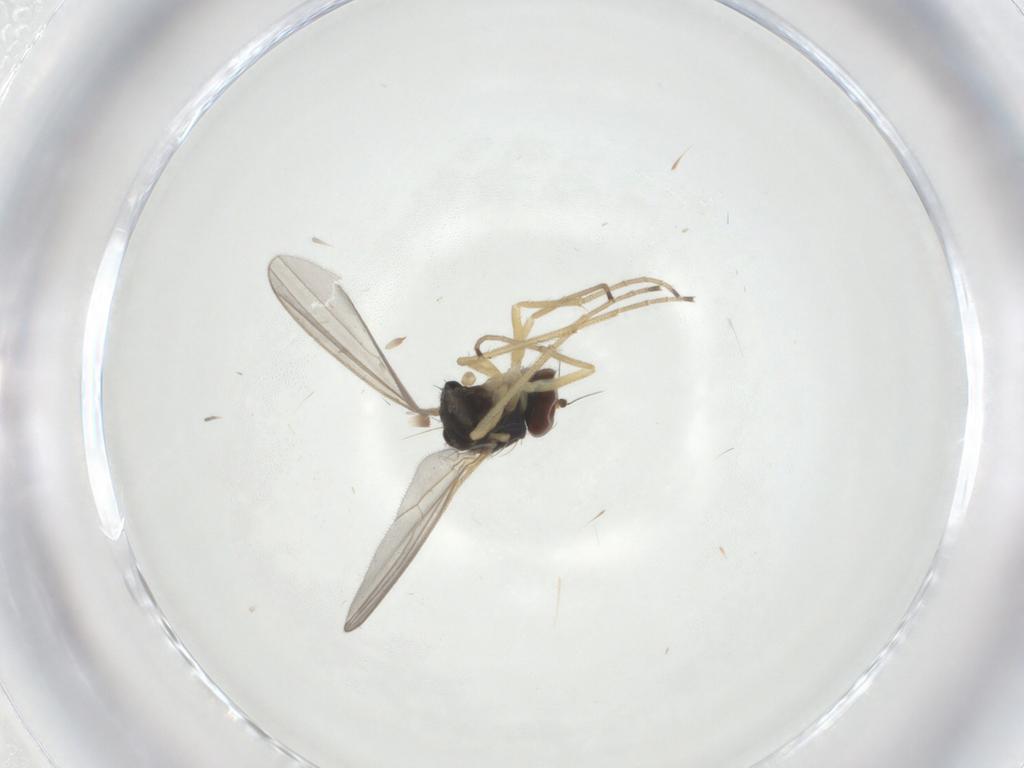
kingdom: Animalia
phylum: Arthropoda
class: Insecta
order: Diptera
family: Dolichopodidae
